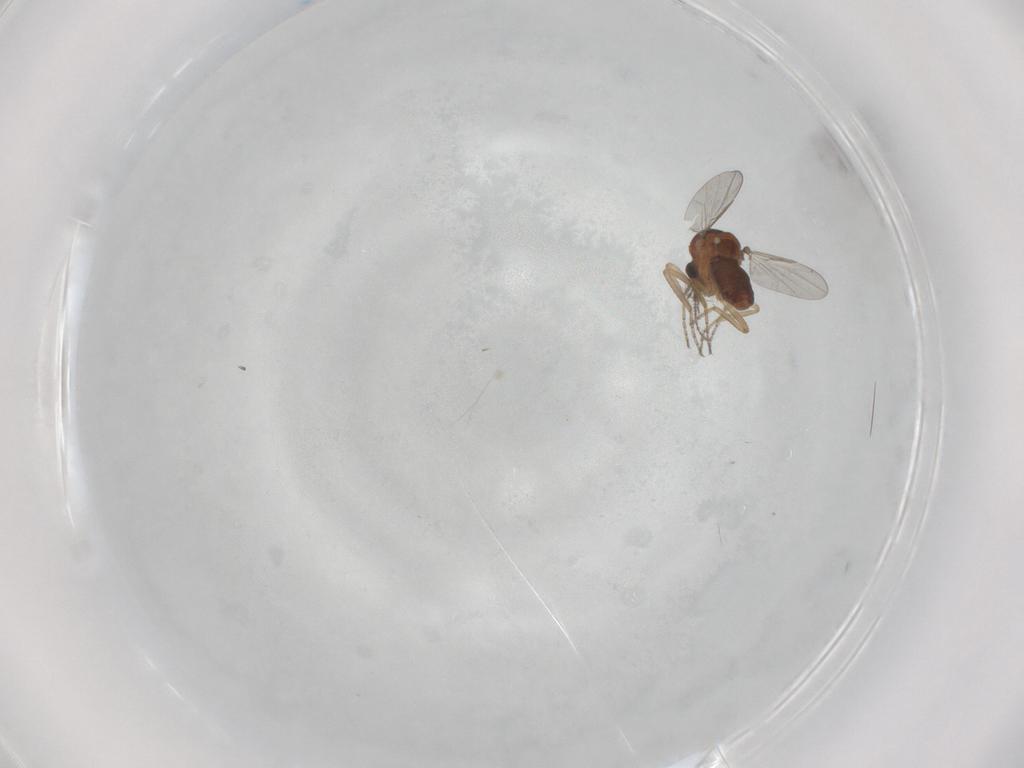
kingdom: Animalia
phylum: Arthropoda
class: Insecta
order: Diptera
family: Ceratopogonidae
